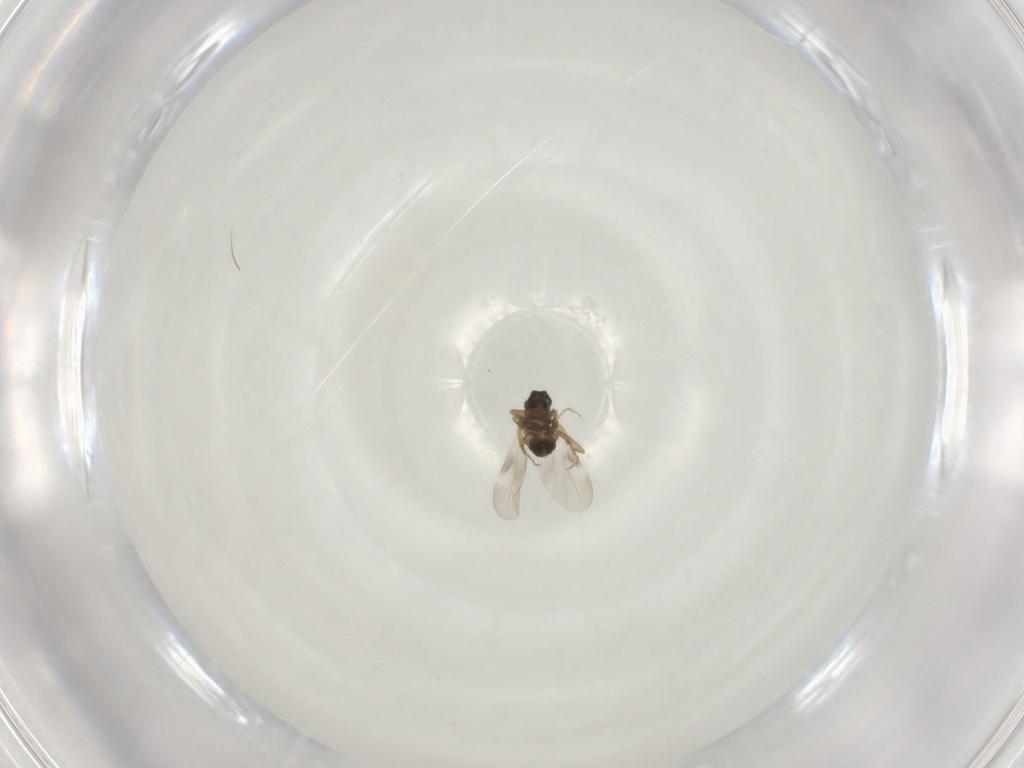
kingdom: Animalia
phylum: Arthropoda
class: Insecta
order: Diptera
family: Ceratopogonidae
